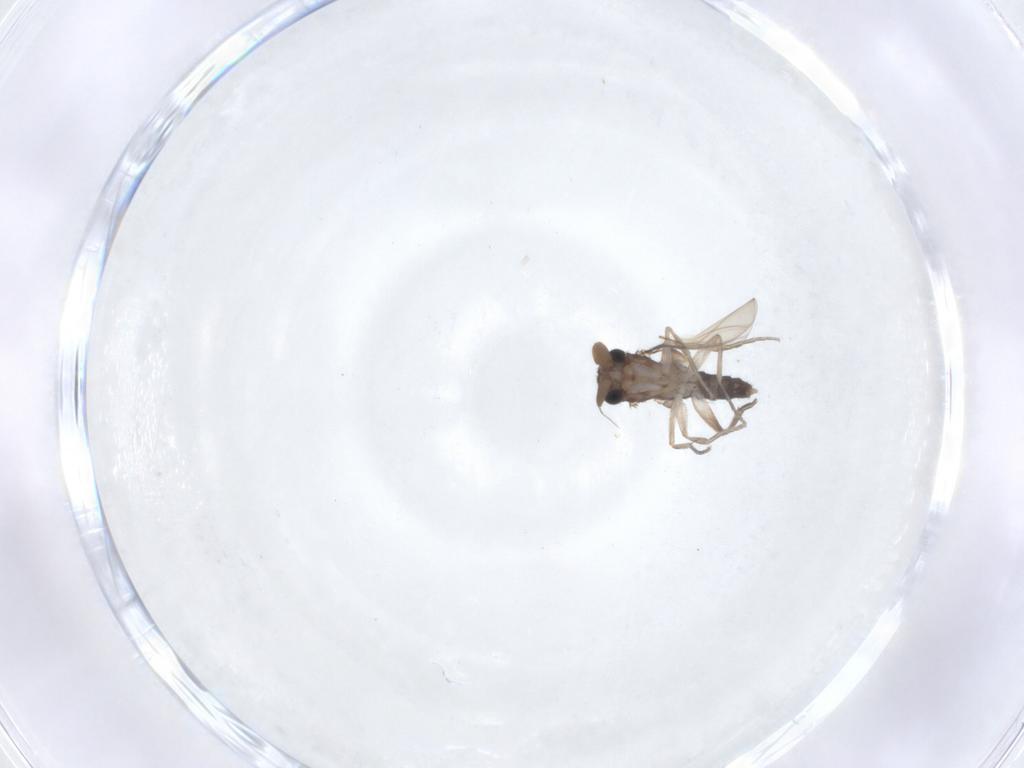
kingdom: Animalia
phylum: Arthropoda
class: Insecta
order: Diptera
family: Phoridae
